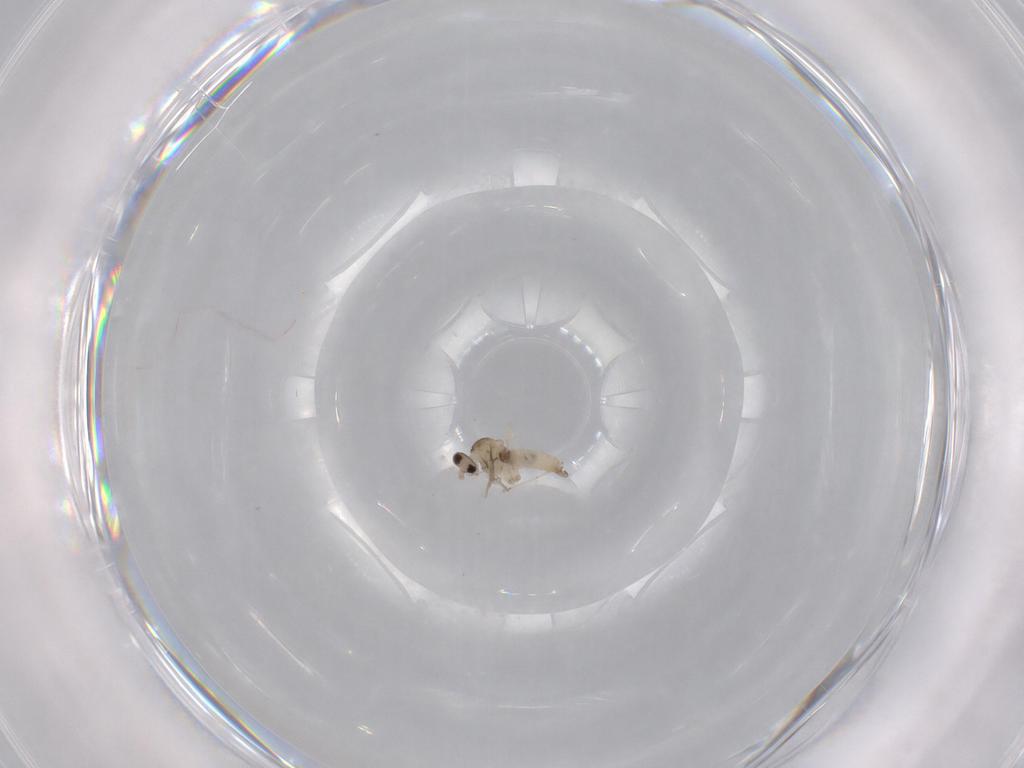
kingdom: Animalia
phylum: Arthropoda
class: Insecta
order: Diptera
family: Cecidomyiidae
